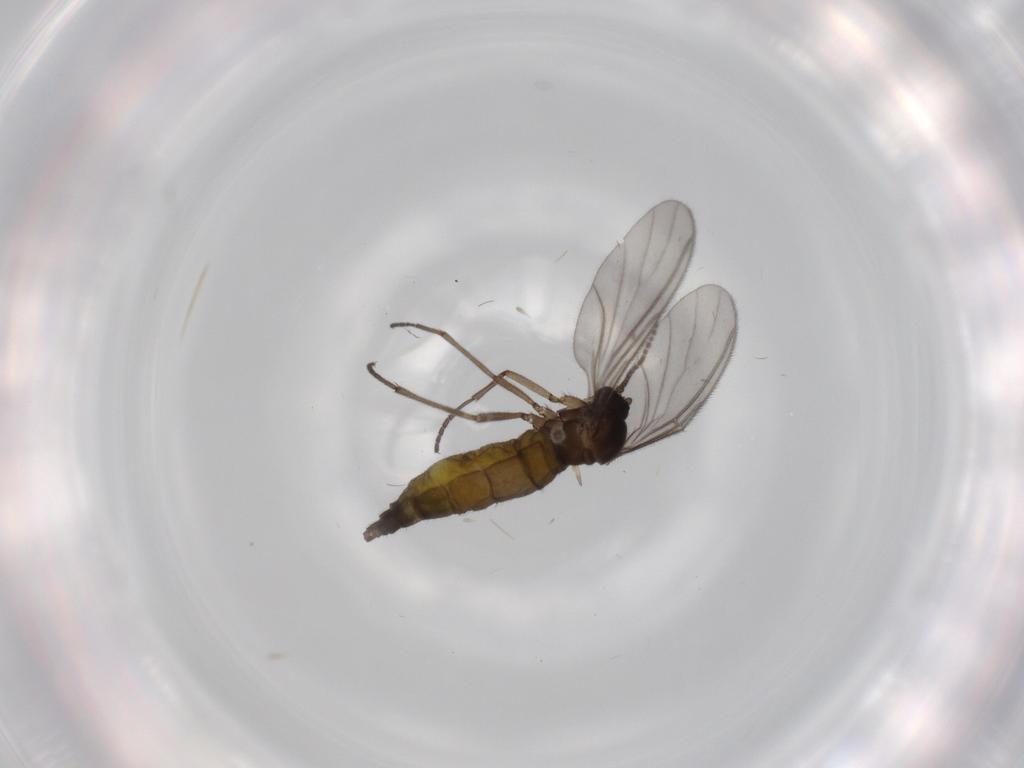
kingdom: Animalia
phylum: Arthropoda
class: Insecta
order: Diptera
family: Sciaridae
